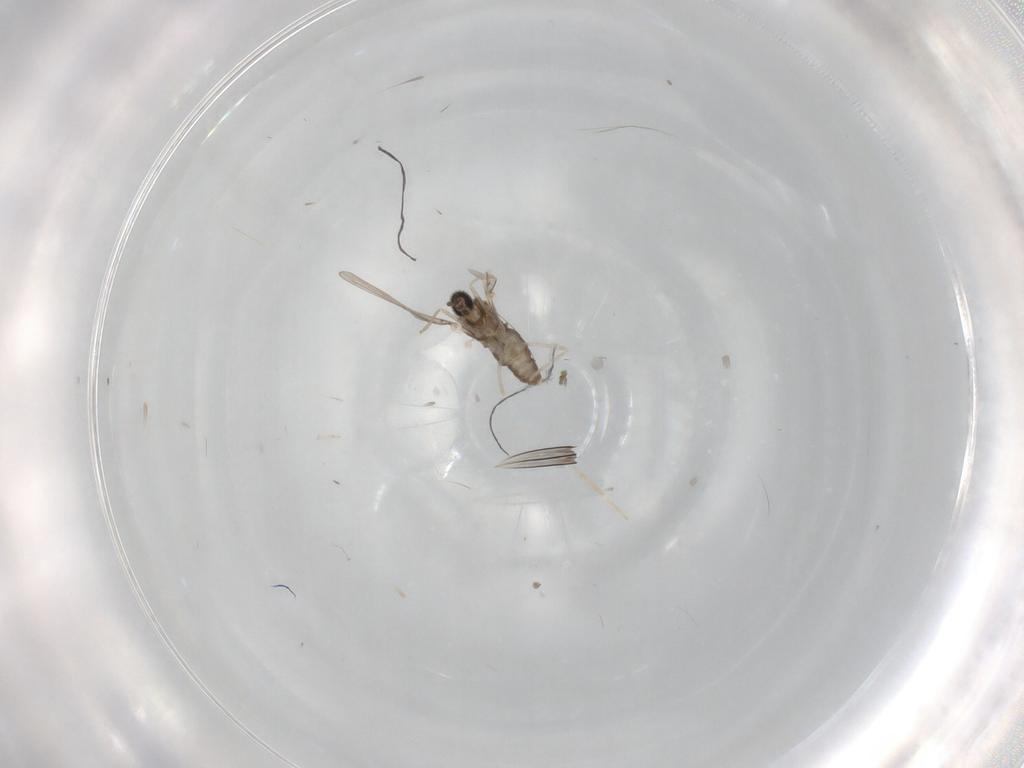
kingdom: Animalia
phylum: Arthropoda
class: Insecta
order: Diptera
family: Cecidomyiidae
